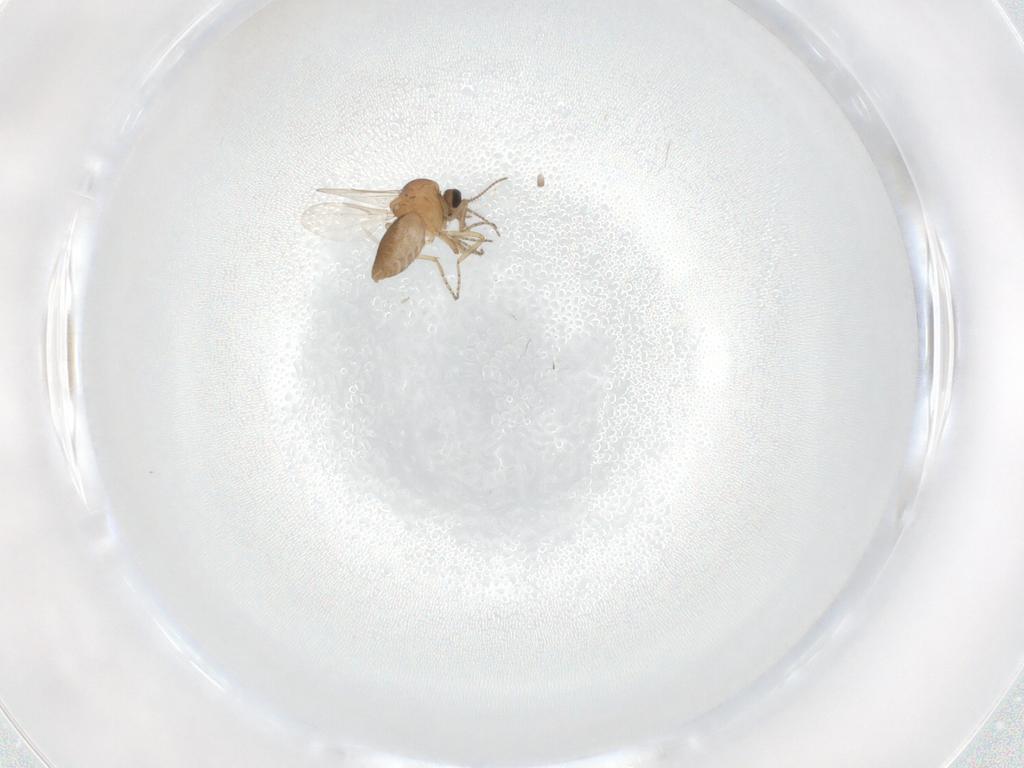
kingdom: Animalia
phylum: Arthropoda
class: Insecta
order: Diptera
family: Ceratopogonidae
